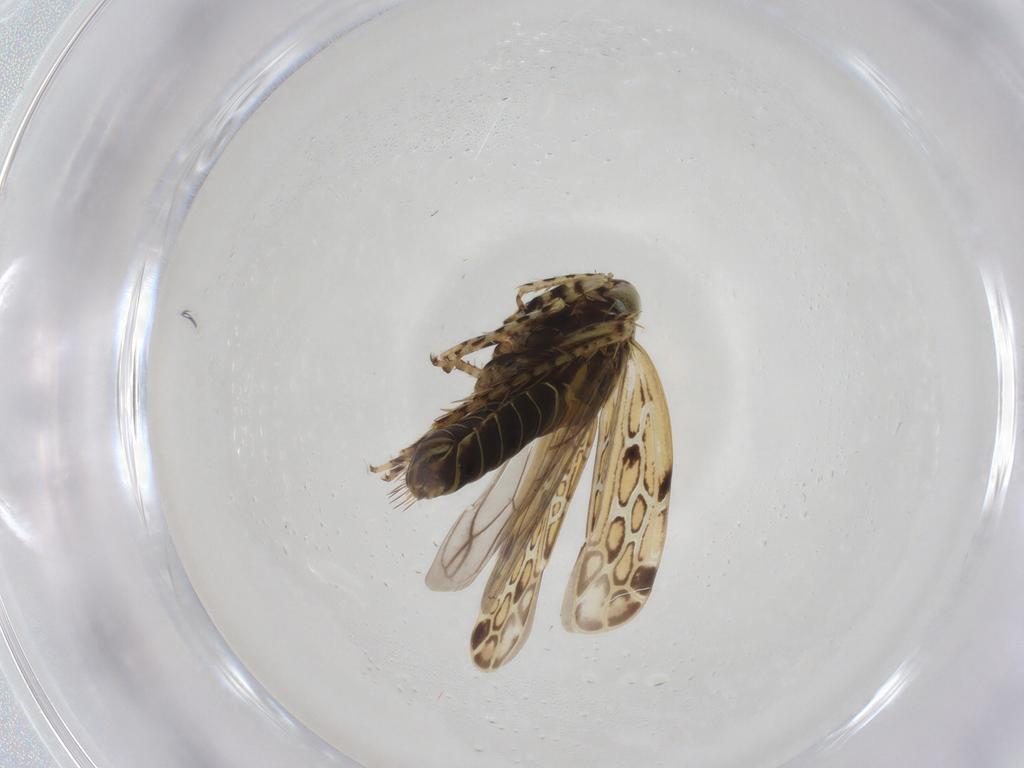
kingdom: Animalia
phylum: Arthropoda
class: Insecta
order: Hemiptera
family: Cicadellidae
